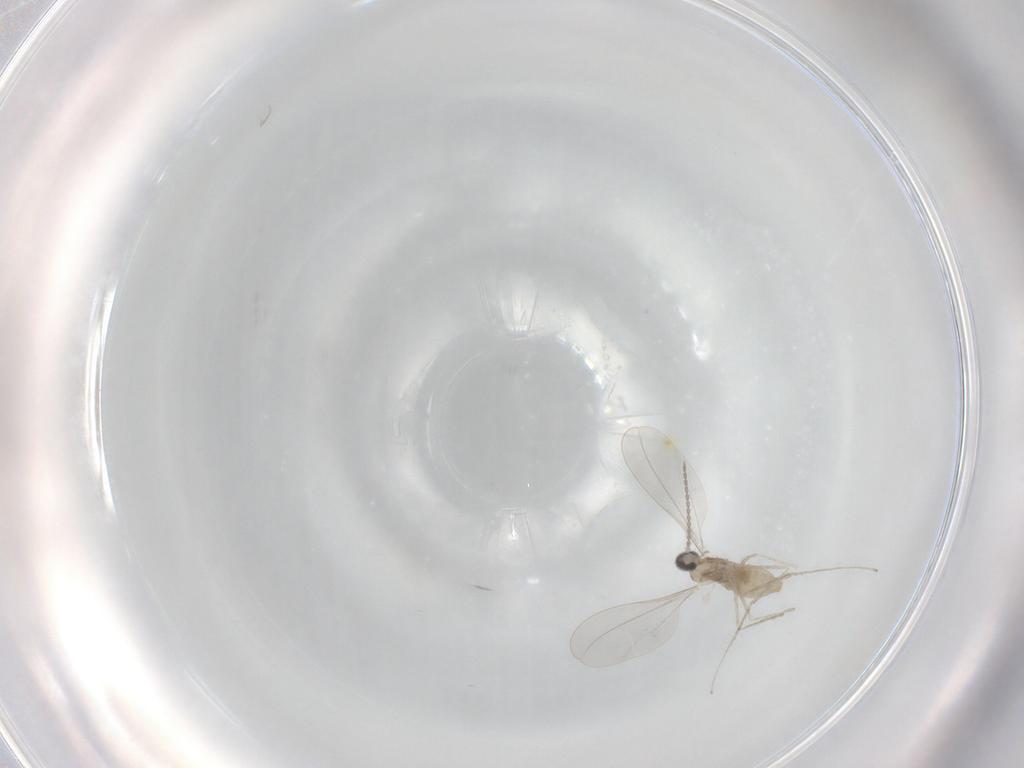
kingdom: Animalia
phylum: Arthropoda
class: Insecta
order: Diptera
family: Cecidomyiidae
